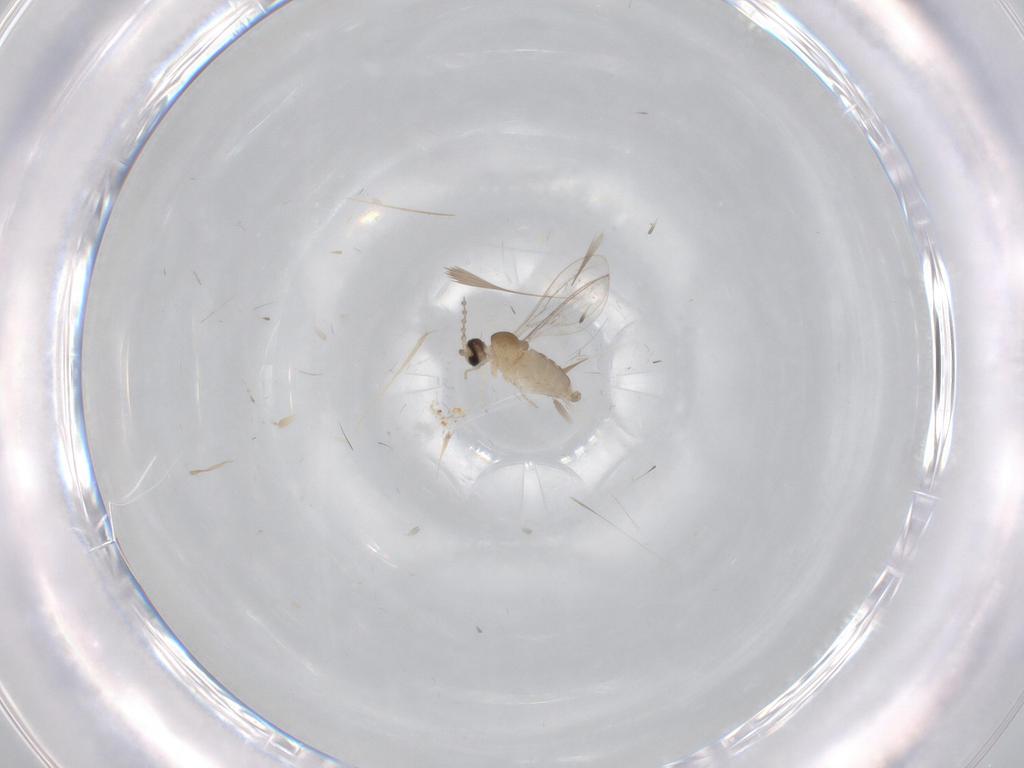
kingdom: Animalia
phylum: Arthropoda
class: Insecta
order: Diptera
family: Cecidomyiidae
